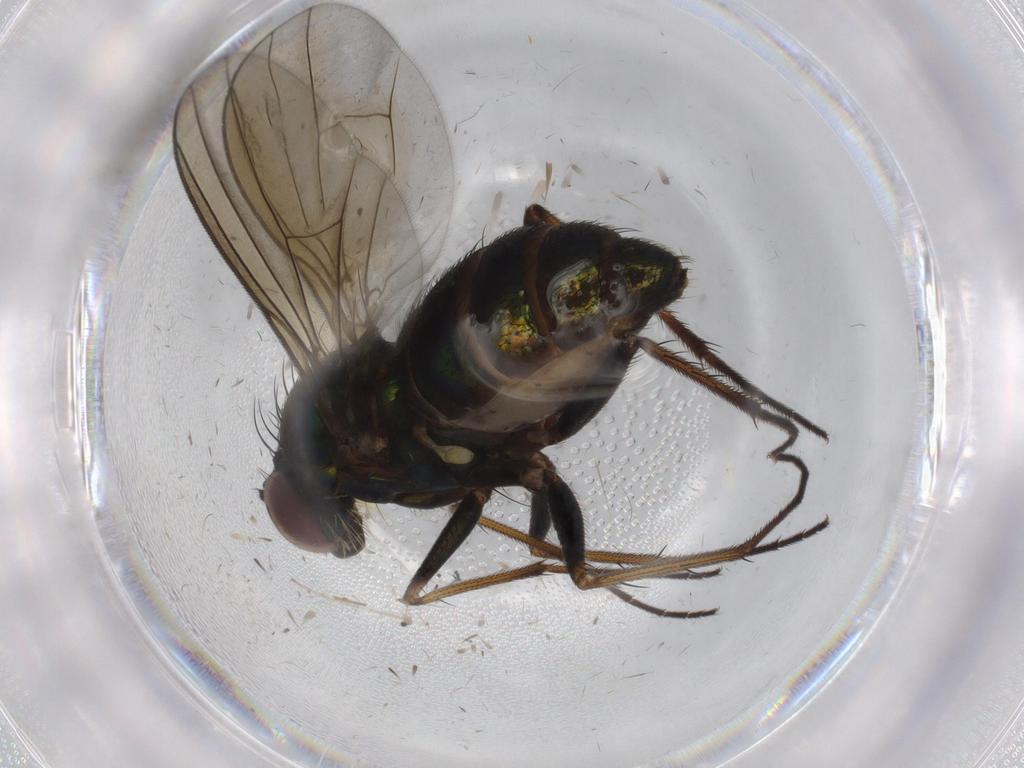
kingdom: Animalia
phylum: Arthropoda
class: Insecta
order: Diptera
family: Dolichopodidae
